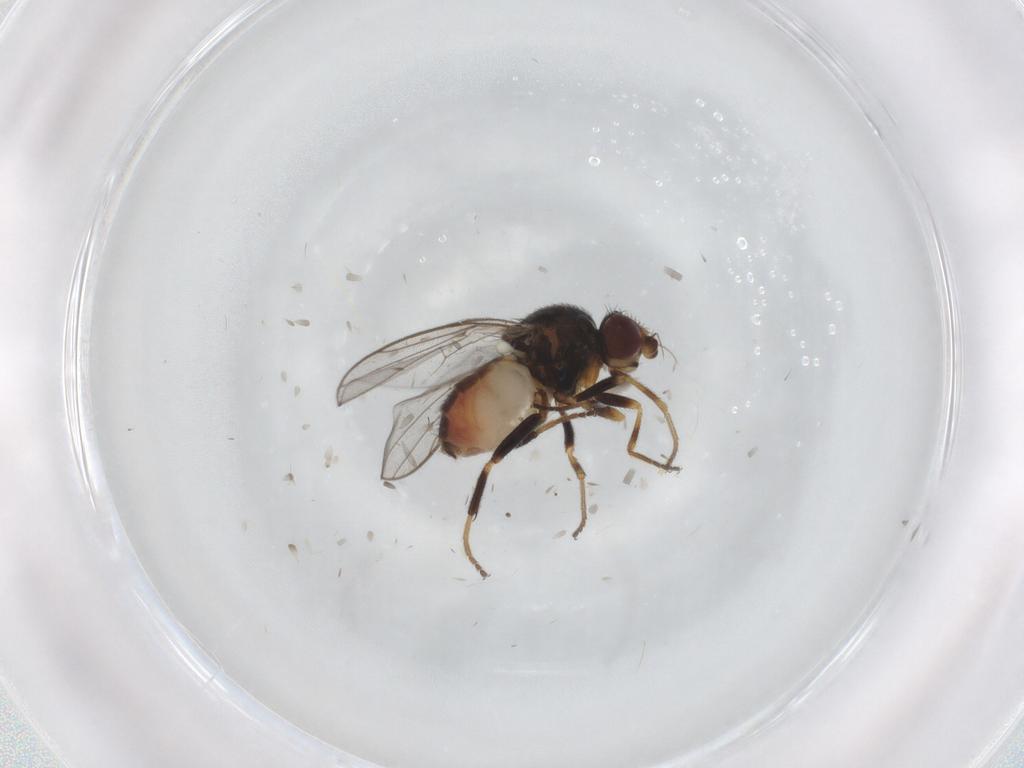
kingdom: Animalia
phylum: Arthropoda
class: Insecta
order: Diptera
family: Chloropidae
